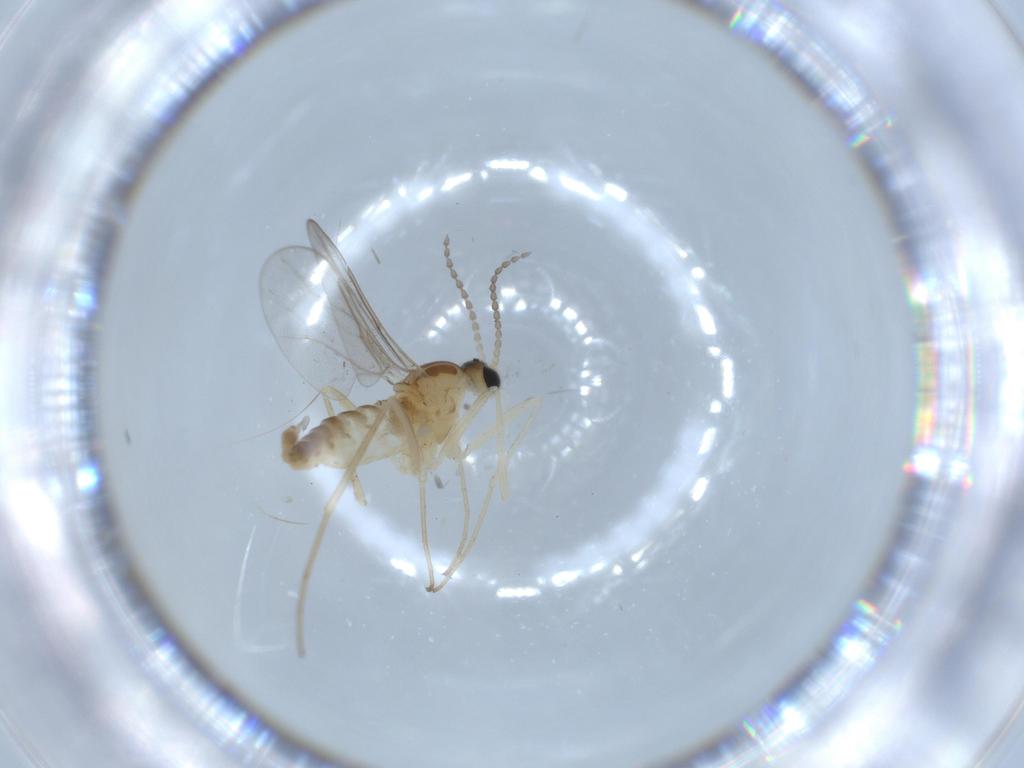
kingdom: Animalia
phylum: Arthropoda
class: Insecta
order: Diptera
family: Chironomidae
